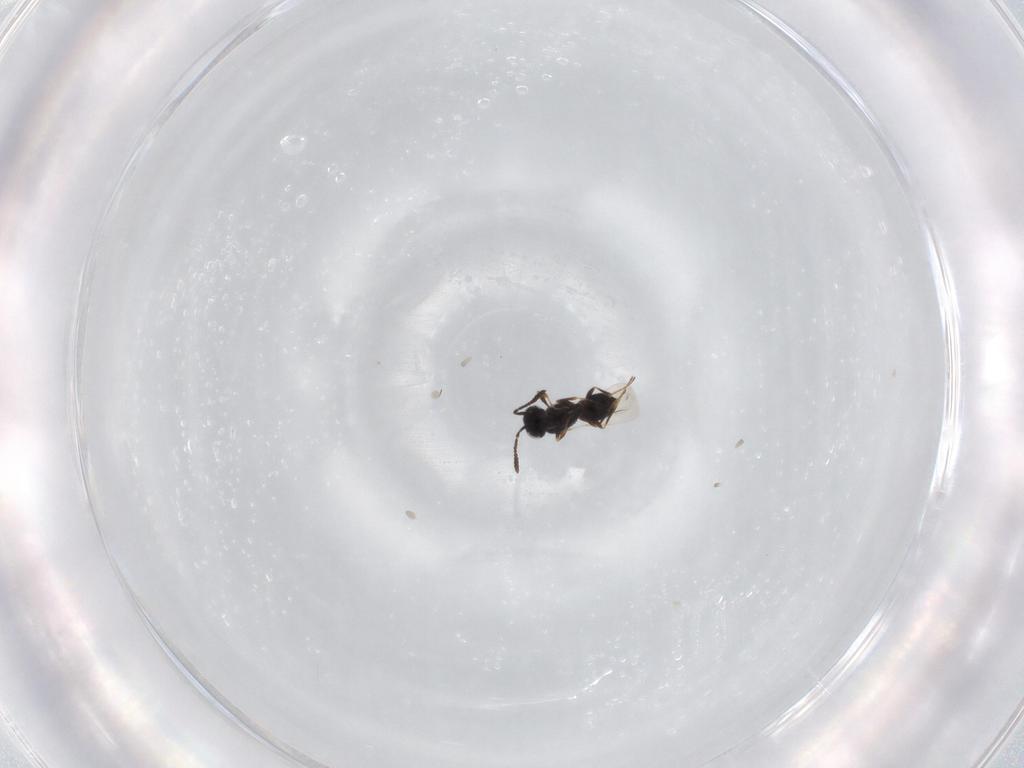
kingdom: Animalia
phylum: Arthropoda
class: Insecta
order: Hymenoptera
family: Scelionidae
